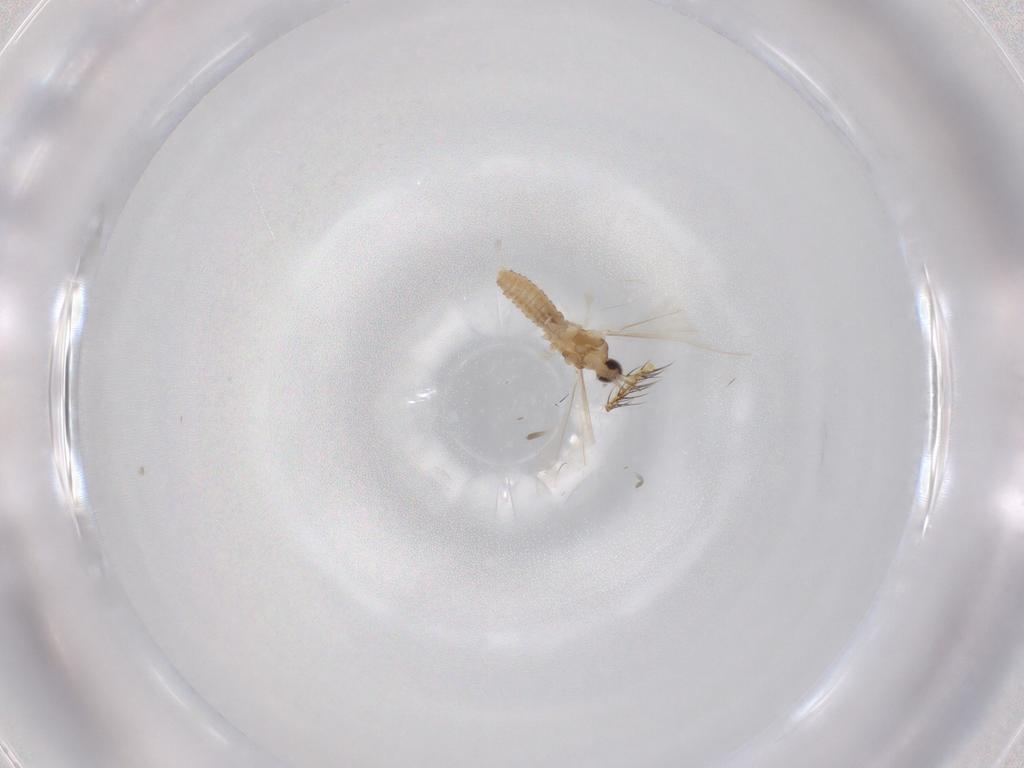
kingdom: Animalia
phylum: Arthropoda
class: Insecta
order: Diptera
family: Cecidomyiidae
